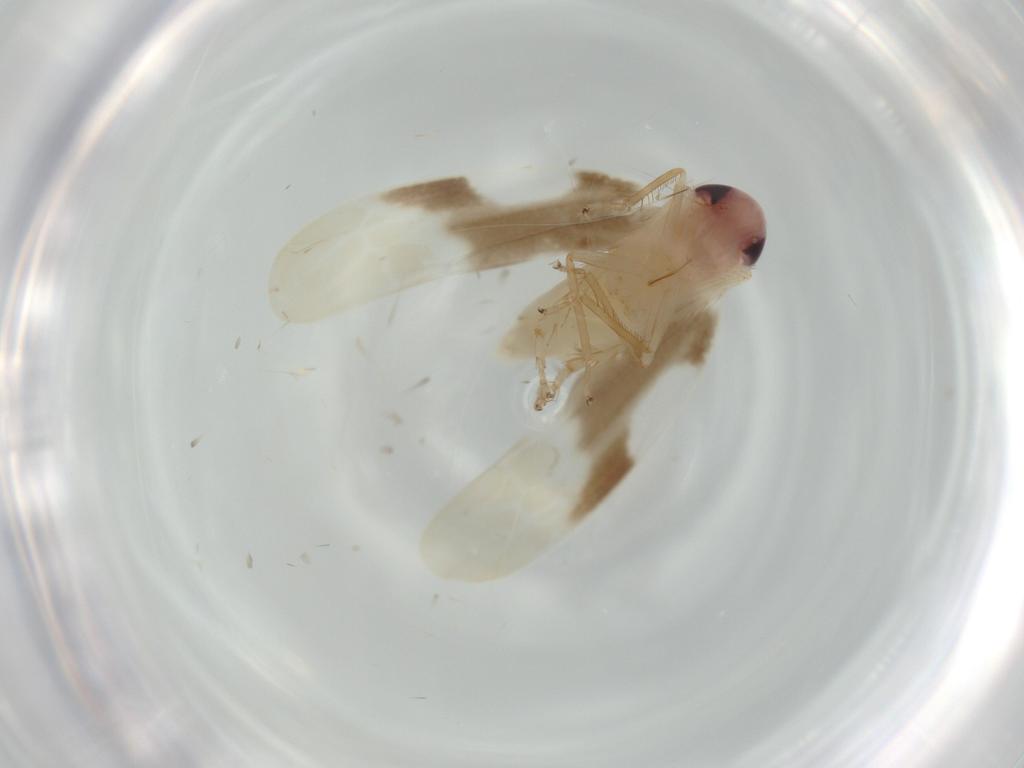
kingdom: Animalia
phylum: Arthropoda
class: Insecta
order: Hemiptera
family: Cicadellidae
